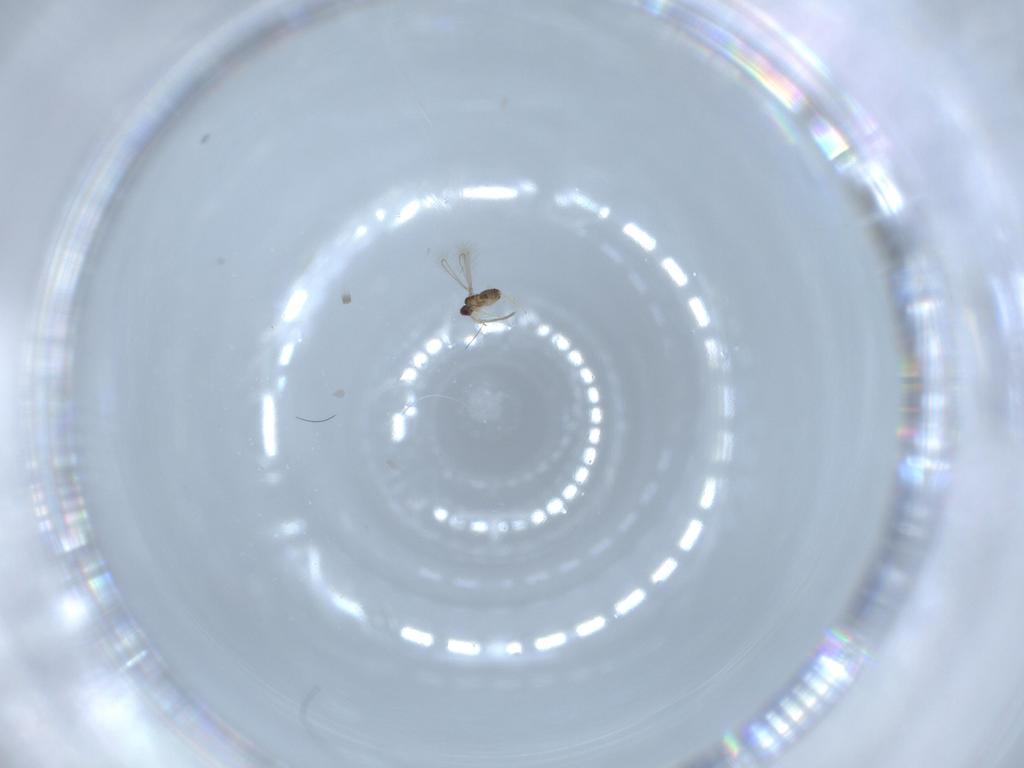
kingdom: Animalia
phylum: Arthropoda
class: Insecta
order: Hymenoptera
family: Mymaridae
